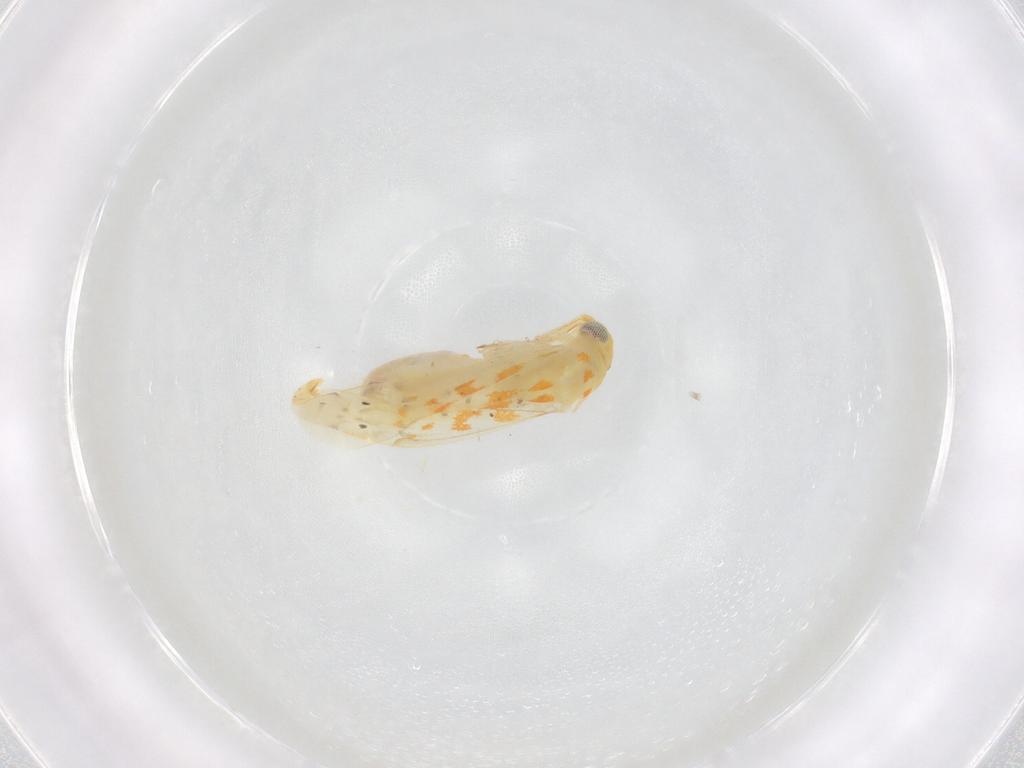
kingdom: Animalia
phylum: Arthropoda
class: Insecta
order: Hemiptera
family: Miridae
